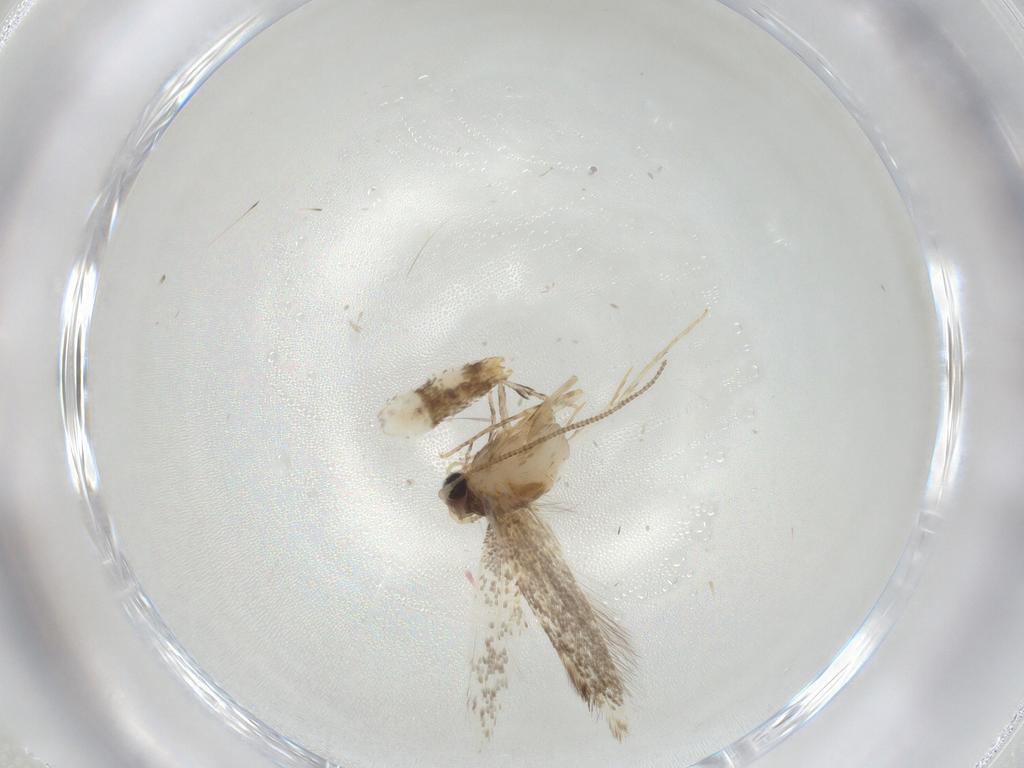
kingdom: Animalia
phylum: Arthropoda
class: Insecta
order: Lepidoptera
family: Tineidae
